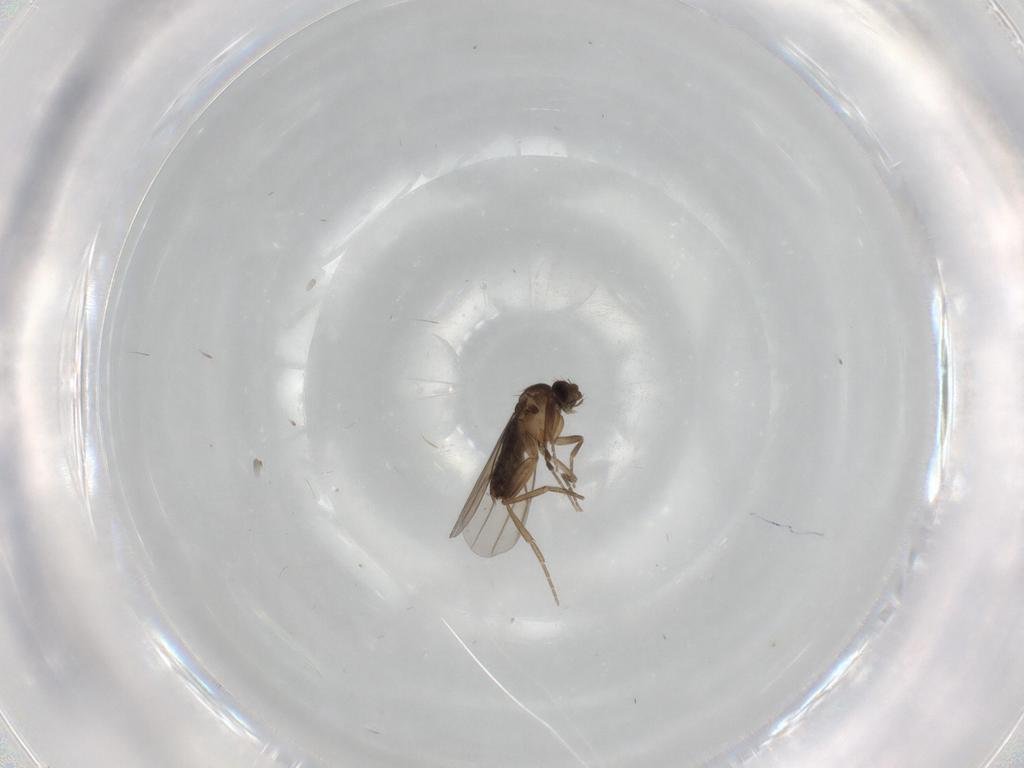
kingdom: Animalia
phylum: Arthropoda
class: Insecta
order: Diptera
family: Phoridae
